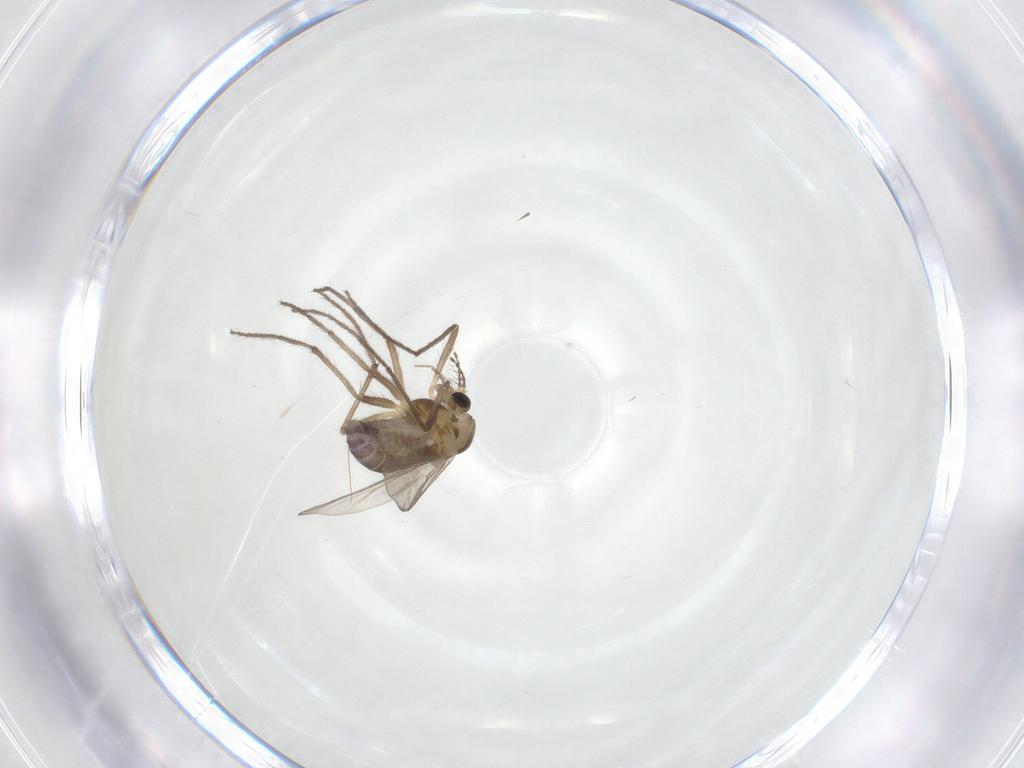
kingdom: Animalia
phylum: Arthropoda
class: Insecta
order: Diptera
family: Chironomidae
